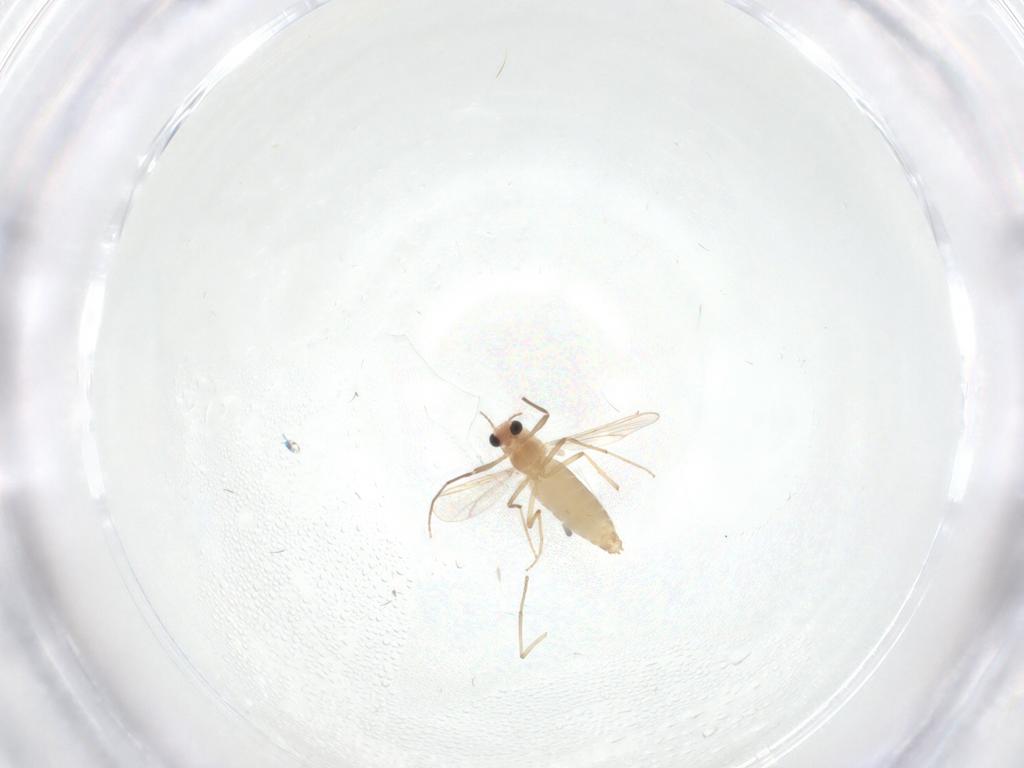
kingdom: Animalia
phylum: Arthropoda
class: Insecta
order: Diptera
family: Chironomidae
